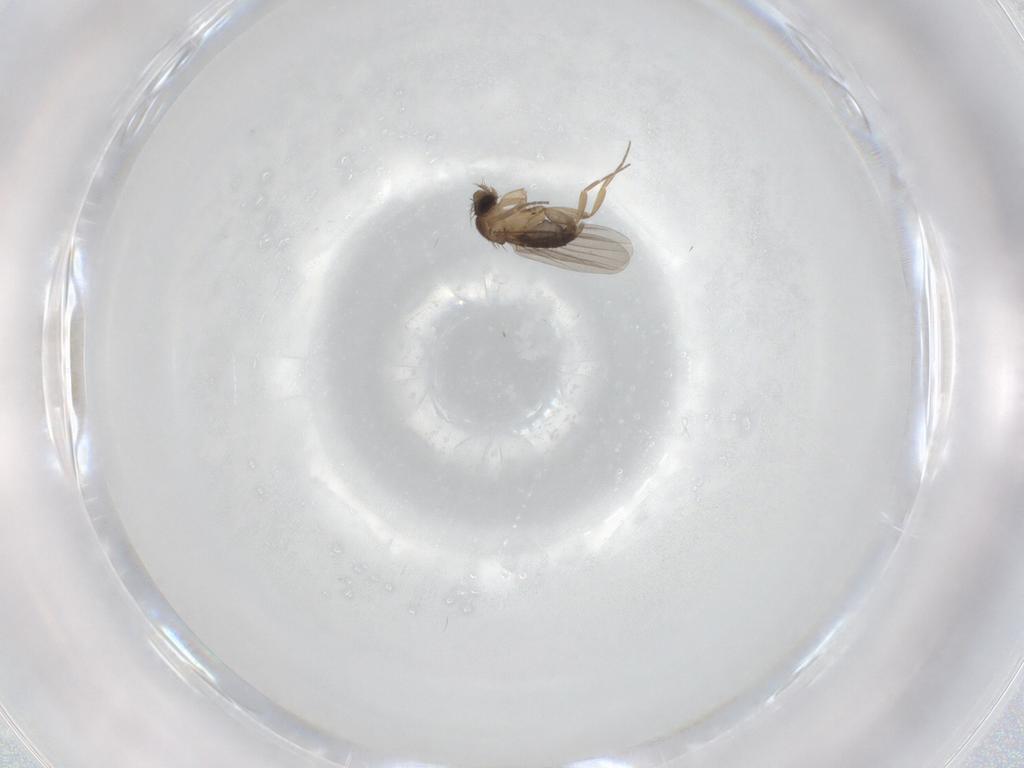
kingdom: Animalia
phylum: Arthropoda
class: Insecta
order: Diptera
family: Phoridae
